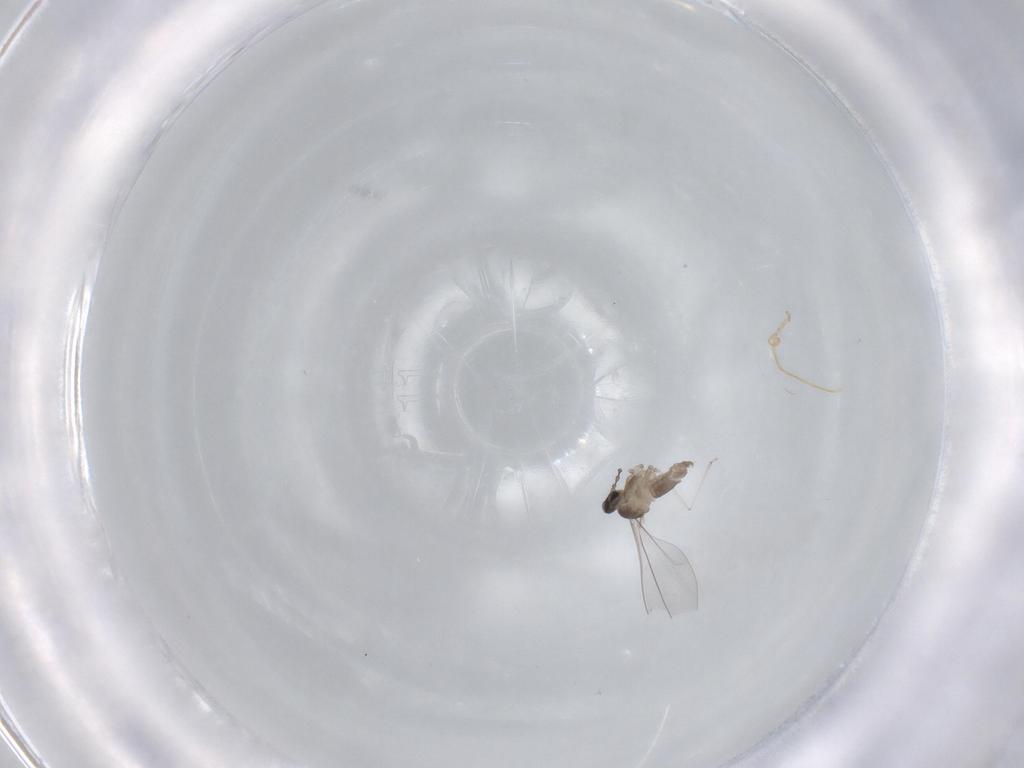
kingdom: Animalia
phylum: Arthropoda
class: Insecta
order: Diptera
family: Cecidomyiidae
